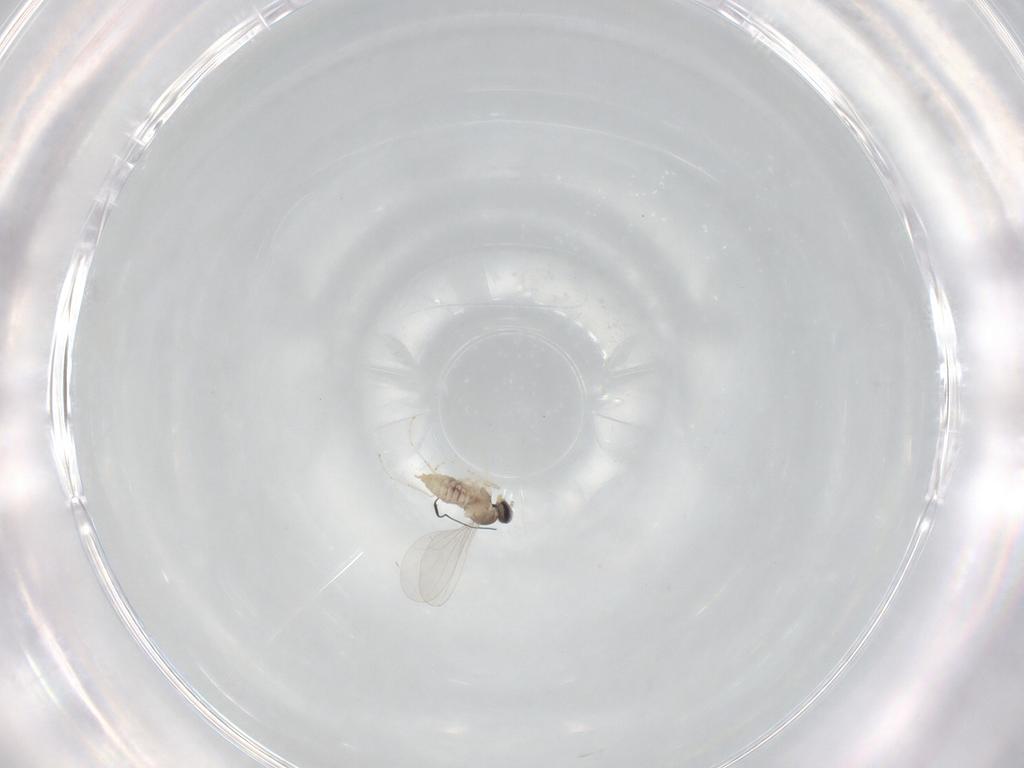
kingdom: Animalia
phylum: Arthropoda
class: Insecta
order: Diptera
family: Cecidomyiidae
